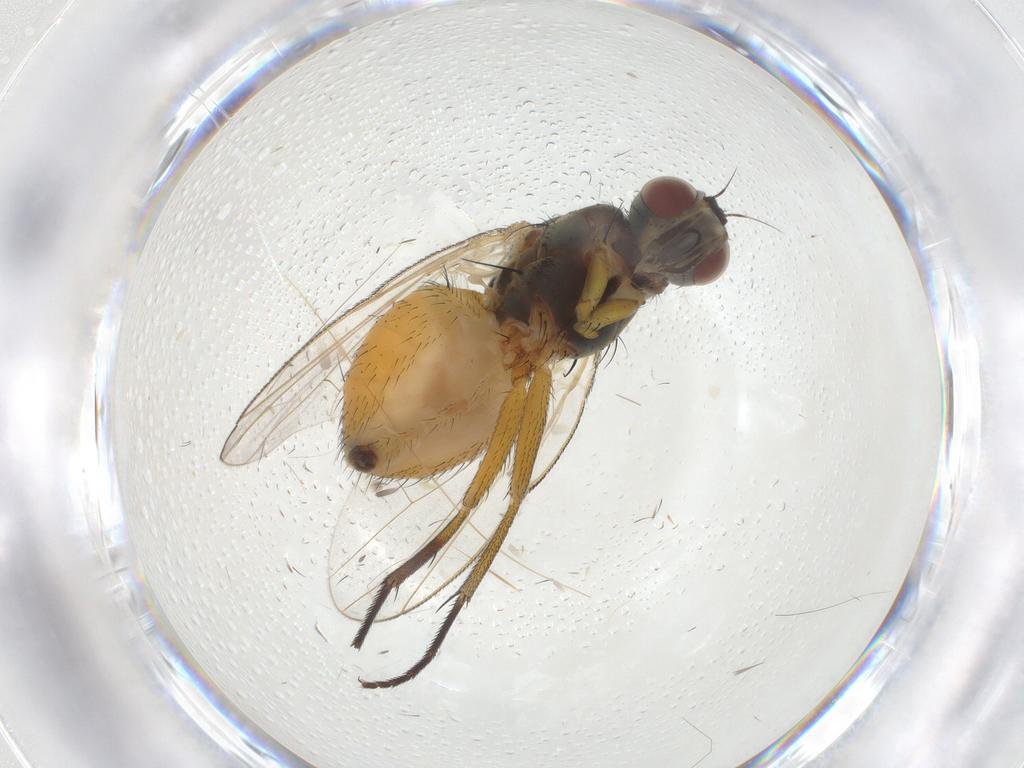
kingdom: Animalia
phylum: Arthropoda
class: Insecta
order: Diptera
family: Muscidae
